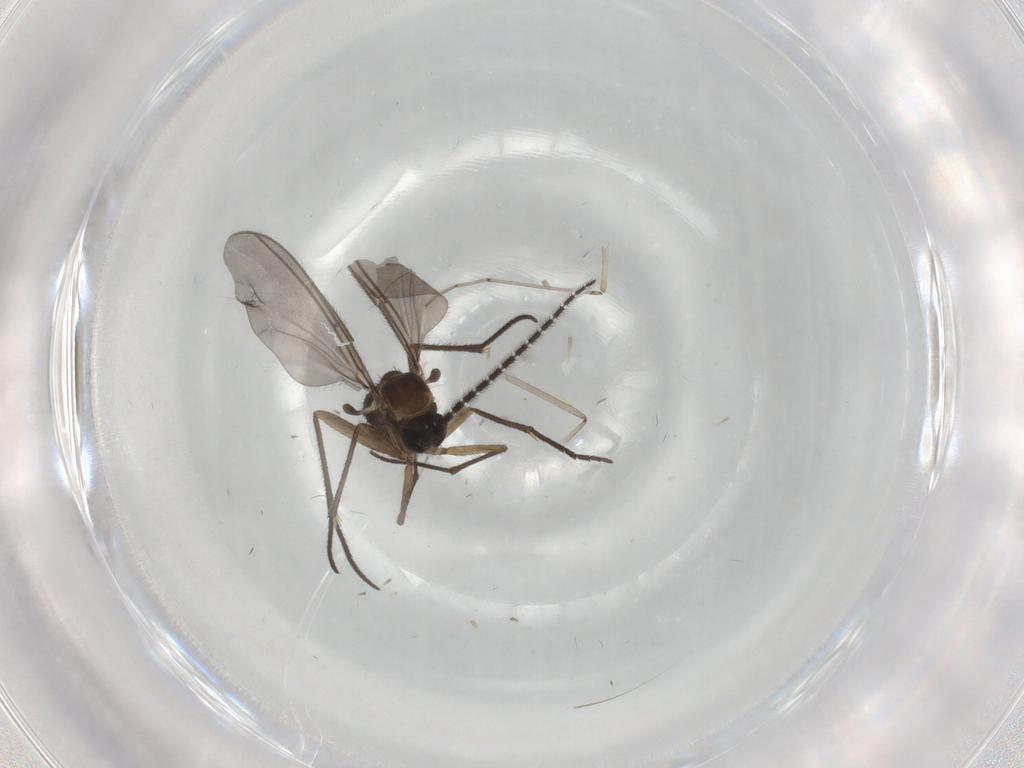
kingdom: Animalia
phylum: Arthropoda
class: Insecta
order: Diptera
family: Sciaridae
